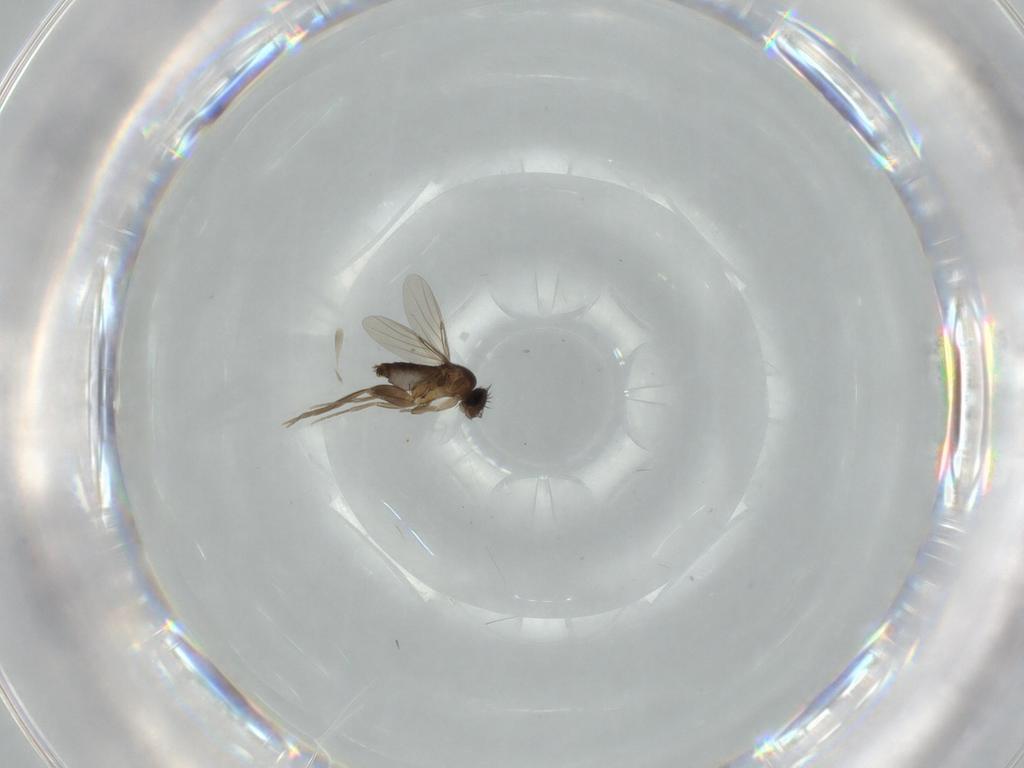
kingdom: Animalia
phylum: Arthropoda
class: Insecta
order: Diptera
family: Phoridae
